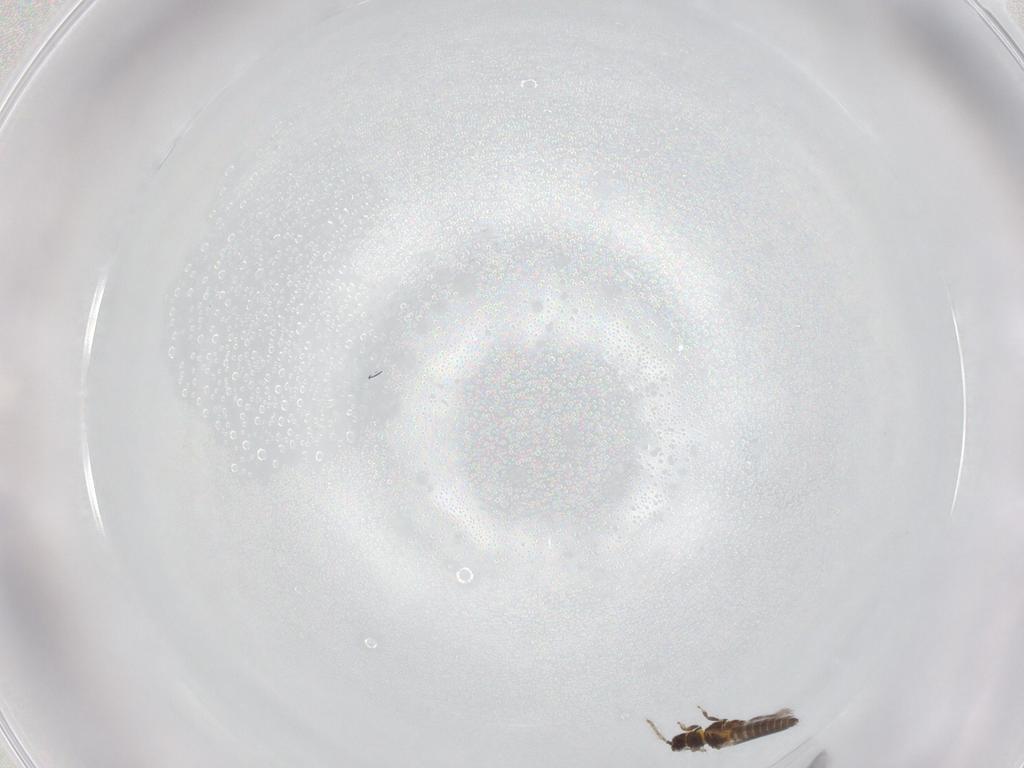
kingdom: Animalia
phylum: Arthropoda
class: Insecta
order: Thysanoptera
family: Thripidae
